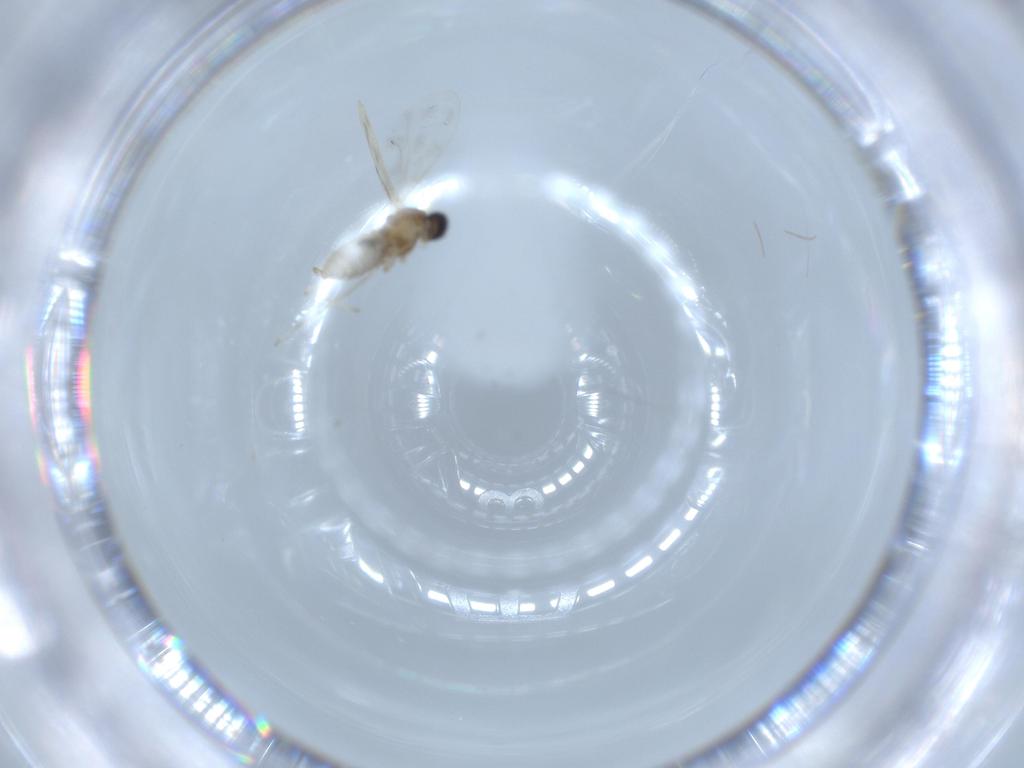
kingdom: Animalia
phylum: Arthropoda
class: Insecta
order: Diptera
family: Cecidomyiidae
